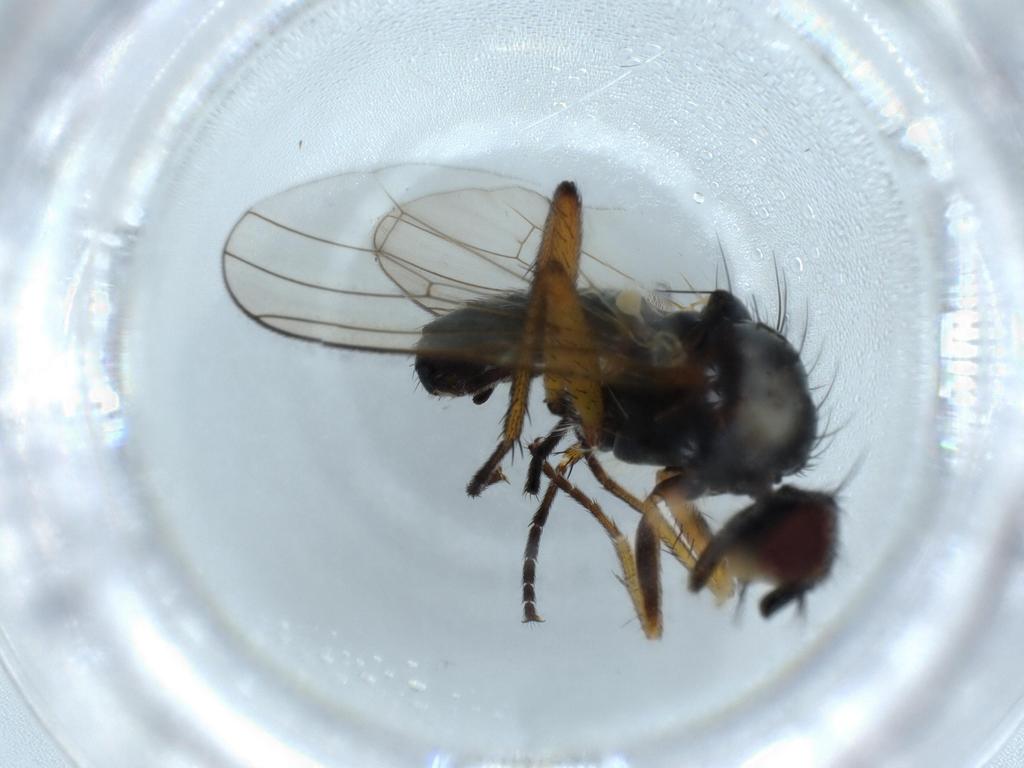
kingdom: Animalia
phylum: Arthropoda
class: Insecta
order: Diptera
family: Scathophagidae
